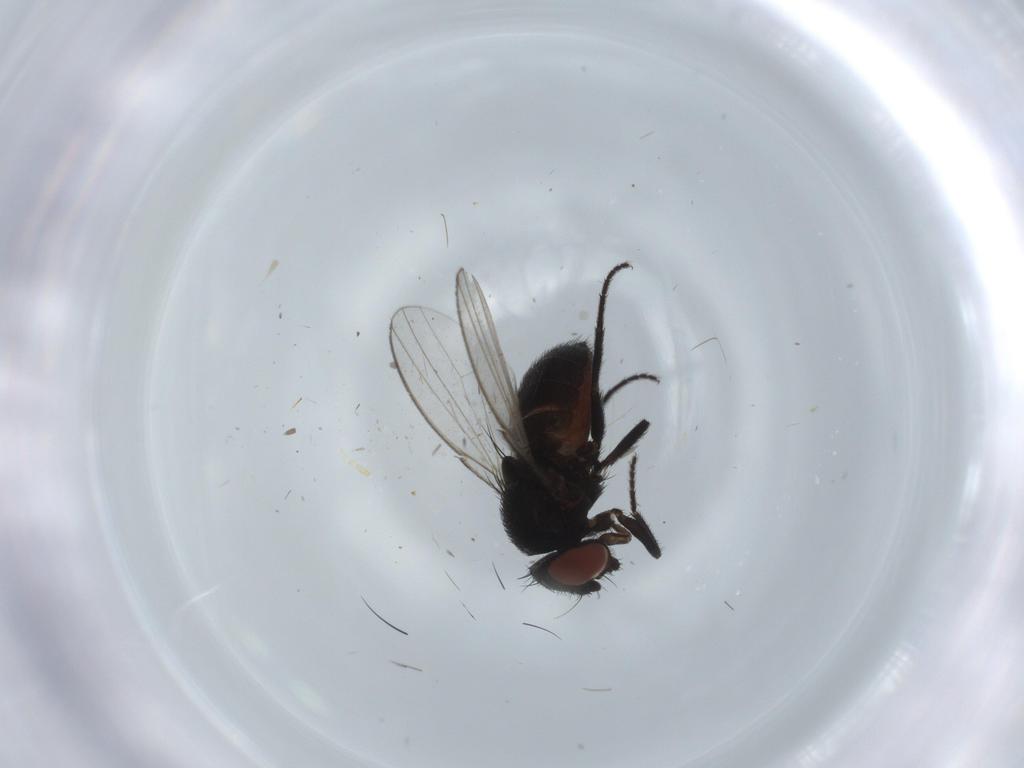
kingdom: Animalia
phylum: Arthropoda
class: Insecta
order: Diptera
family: Milichiidae
